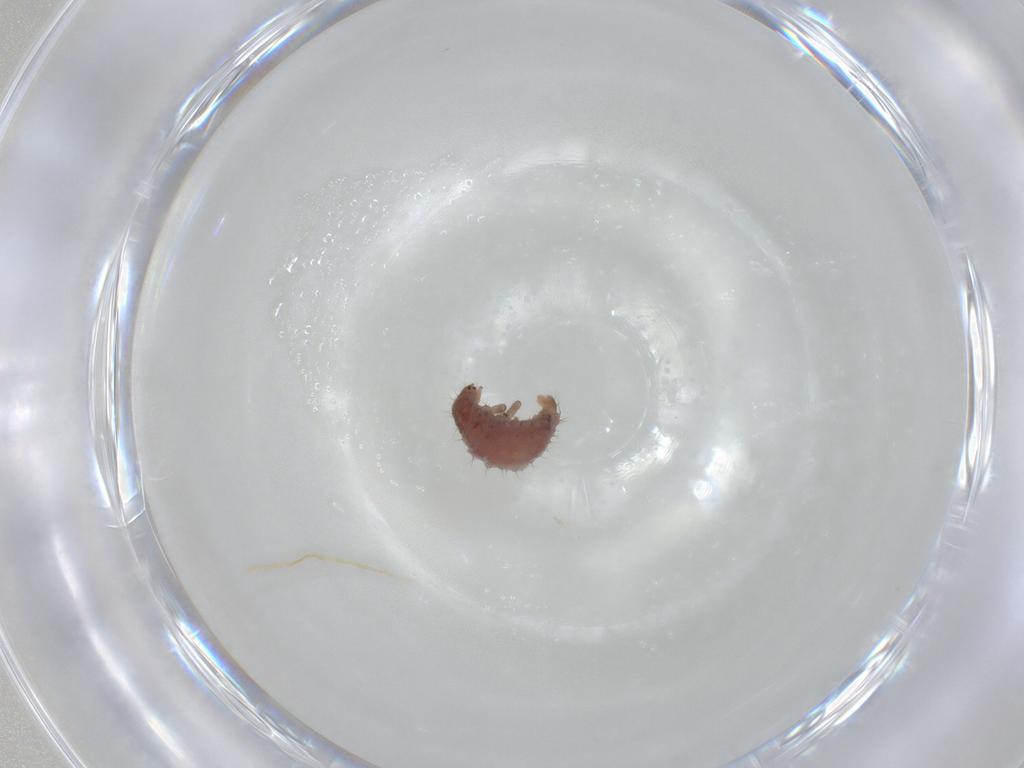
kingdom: Animalia
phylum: Arthropoda
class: Insecta
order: Coleoptera
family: Coccinellidae
